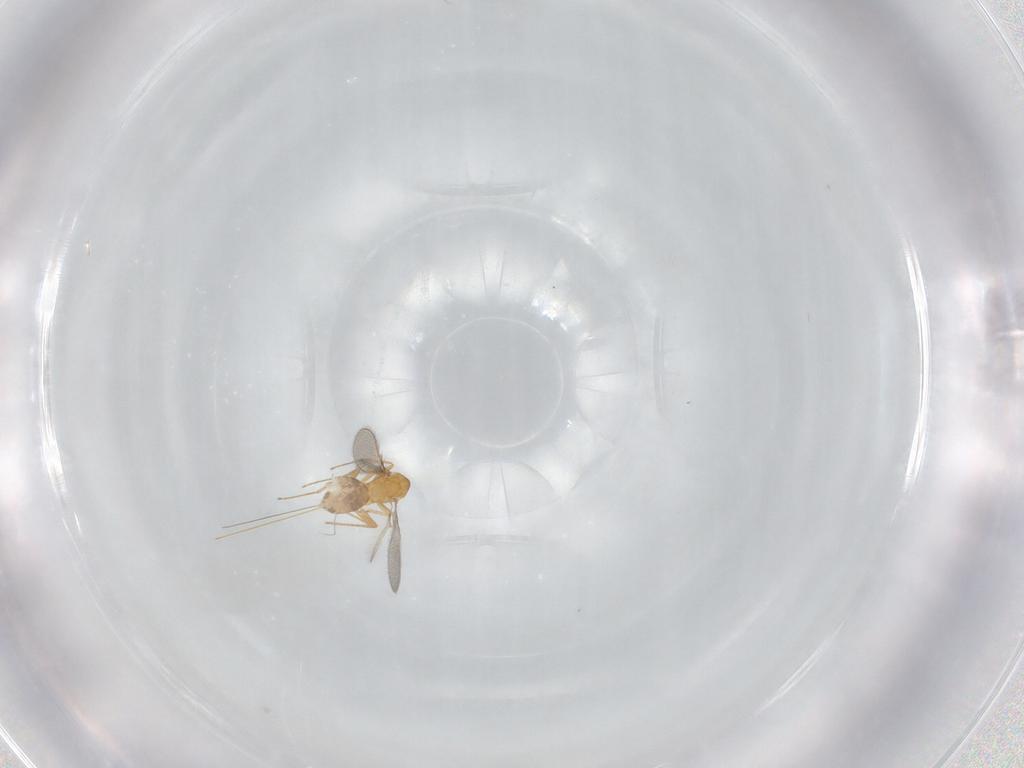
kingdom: Animalia
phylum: Arthropoda
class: Insecta
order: Hymenoptera
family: Mymaridae
